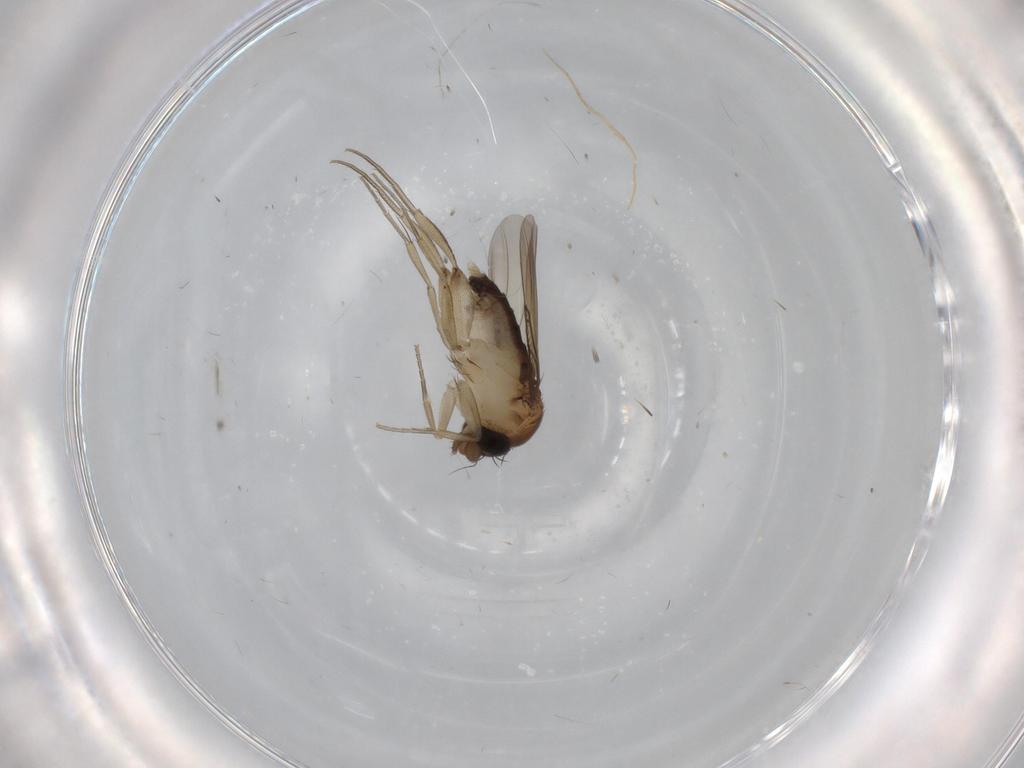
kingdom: Animalia
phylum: Arthropoda
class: Insecta
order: Diptera
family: Phoridae
